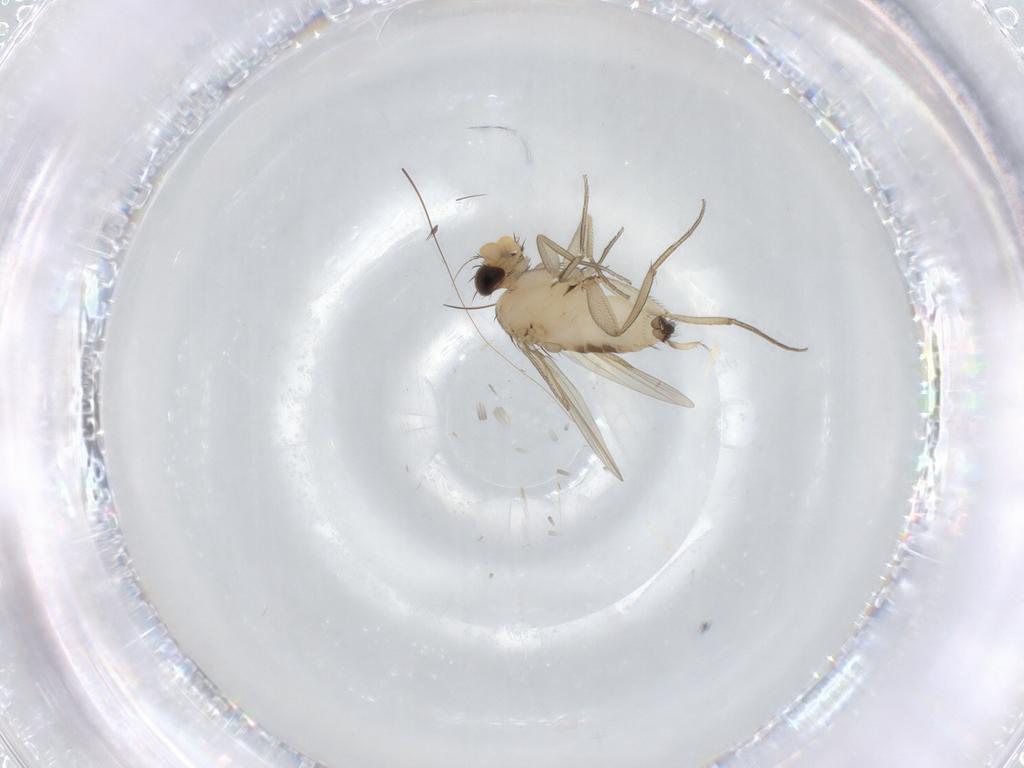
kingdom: Animalia
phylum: Arthropoda
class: Insecta
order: Diptera
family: Phoridae
